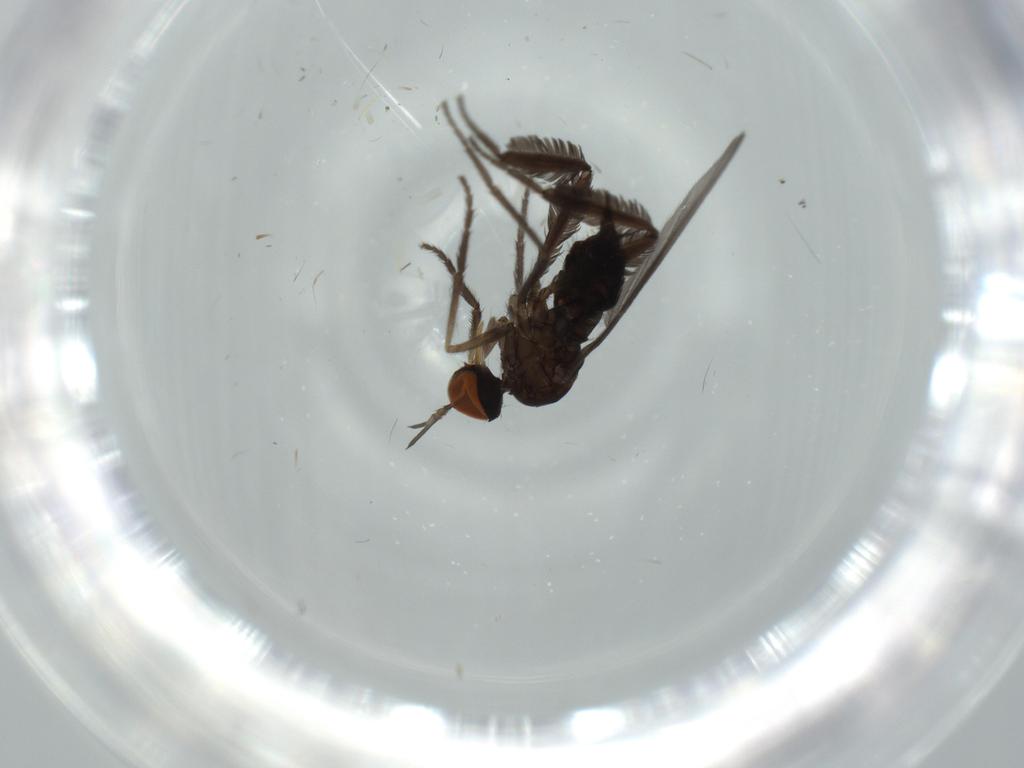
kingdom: Animalia
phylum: Arthropoda
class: Insecta
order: Diptera
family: Empididae
